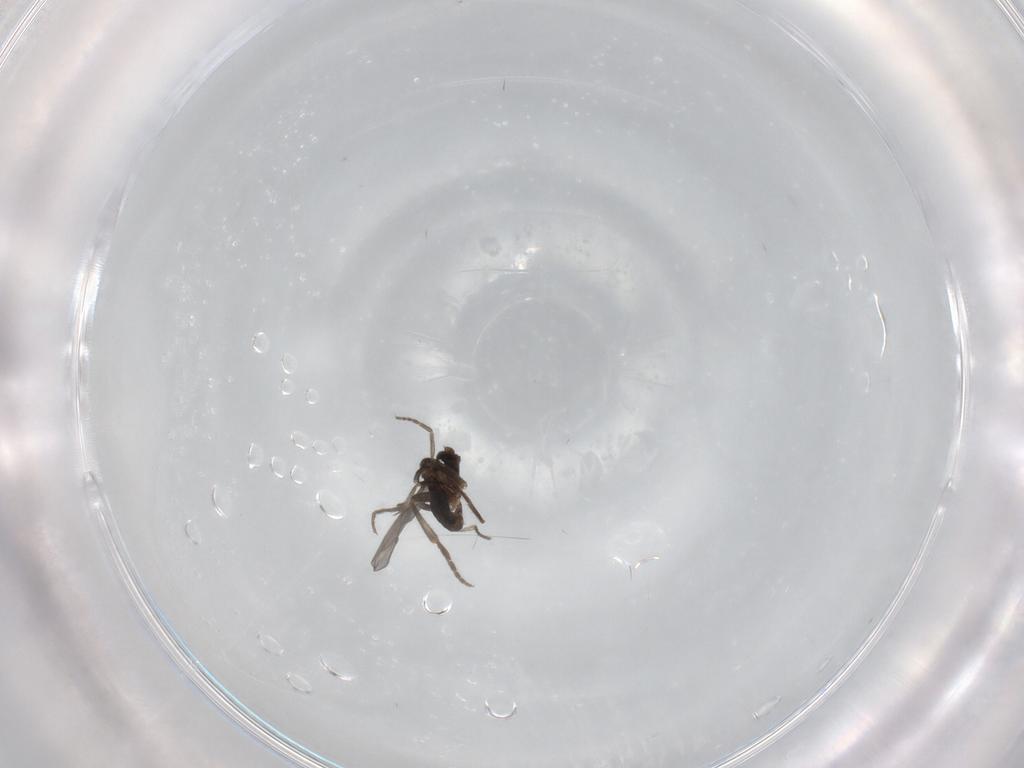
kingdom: Animalia
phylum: Arthropoda
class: Insecta
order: Diptera
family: Phoridae
